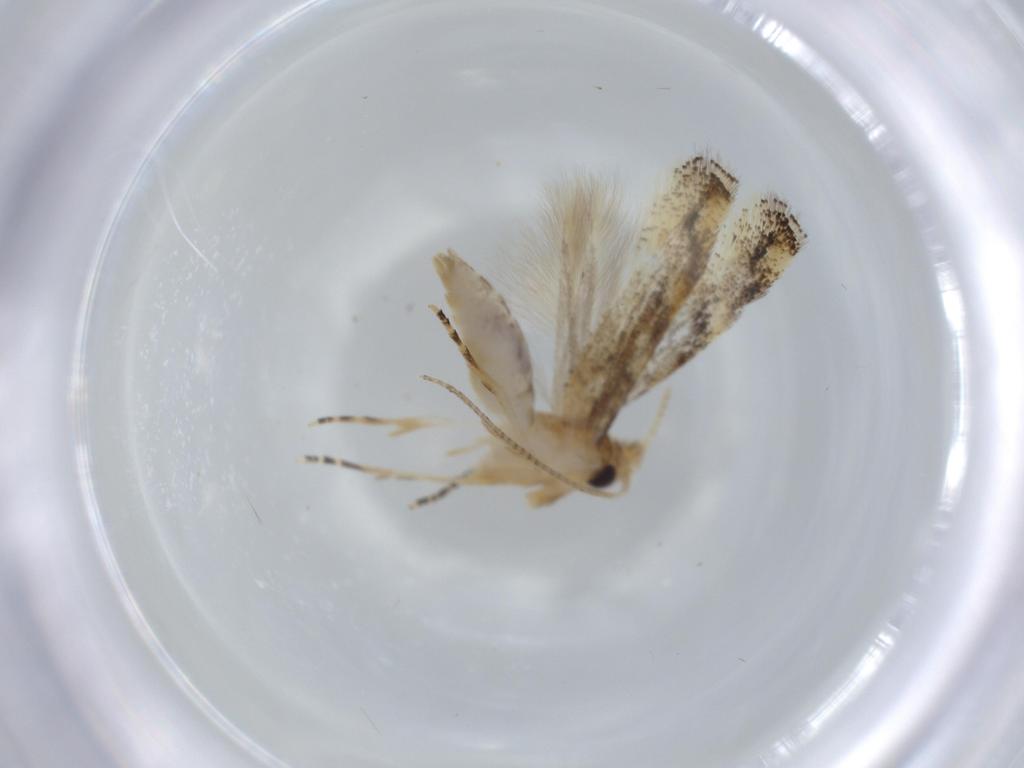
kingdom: Animalia
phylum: Arthropoda
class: Insecta
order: Lepidoptera
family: Bucculatricidae
